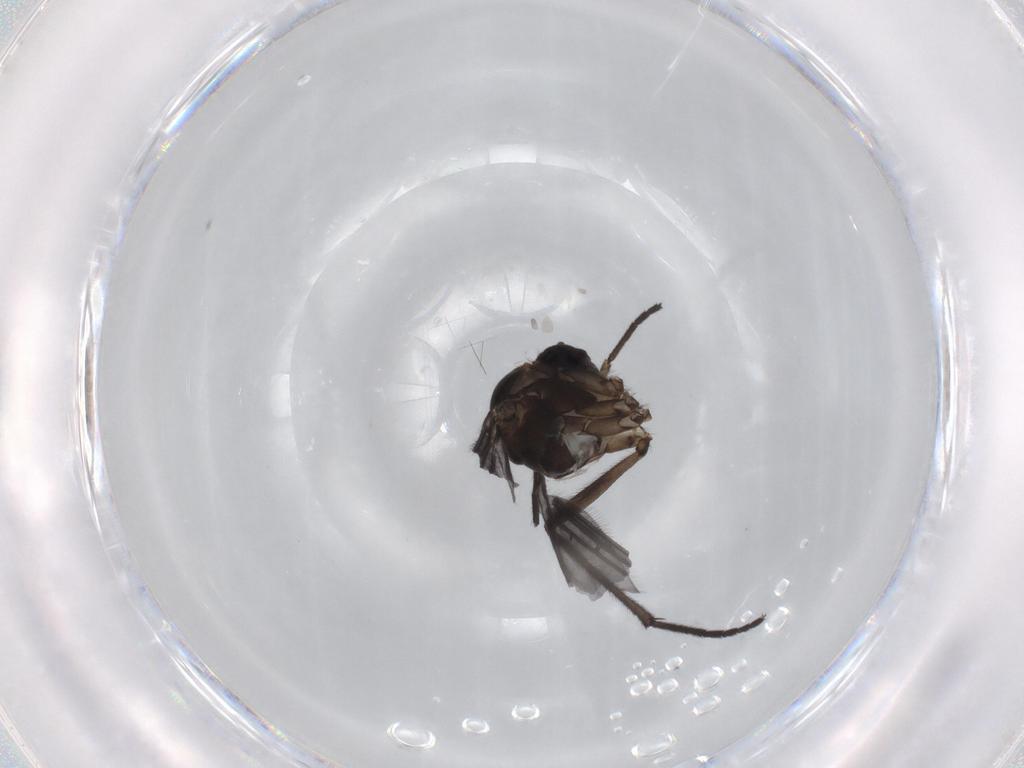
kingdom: Animalia
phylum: Arthropoda
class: Insecta
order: Diptera
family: Sciaridae
